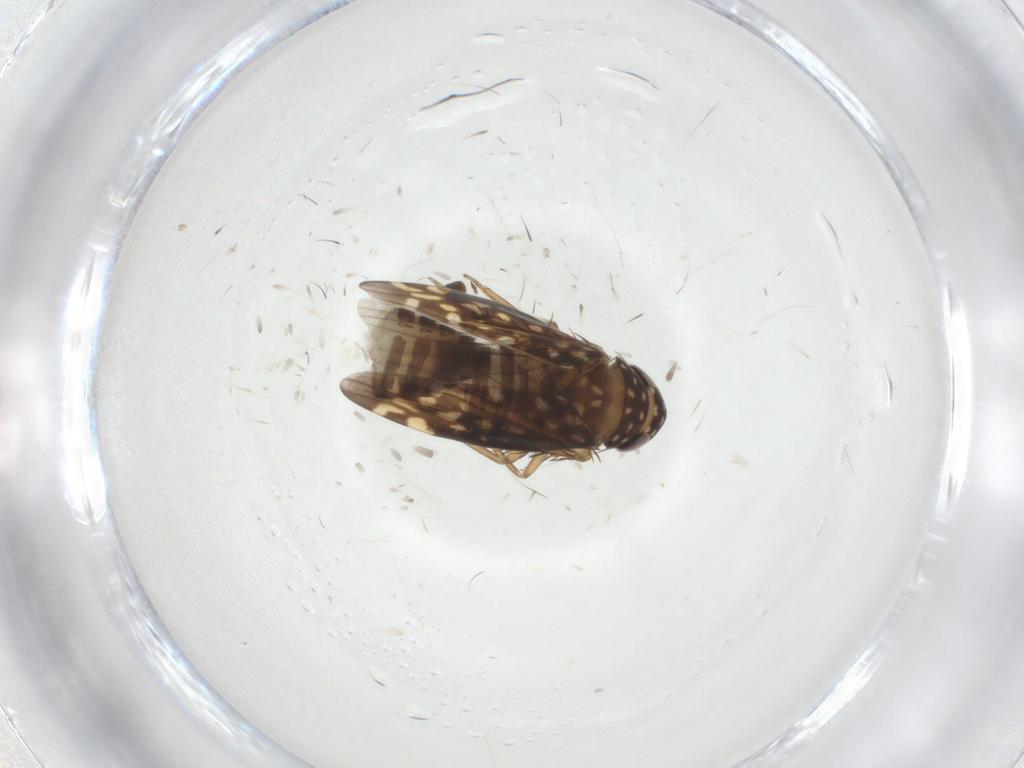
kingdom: Animalia
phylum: Arthropoda
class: Insecta
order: Hemiptera
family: Cicadellidae
